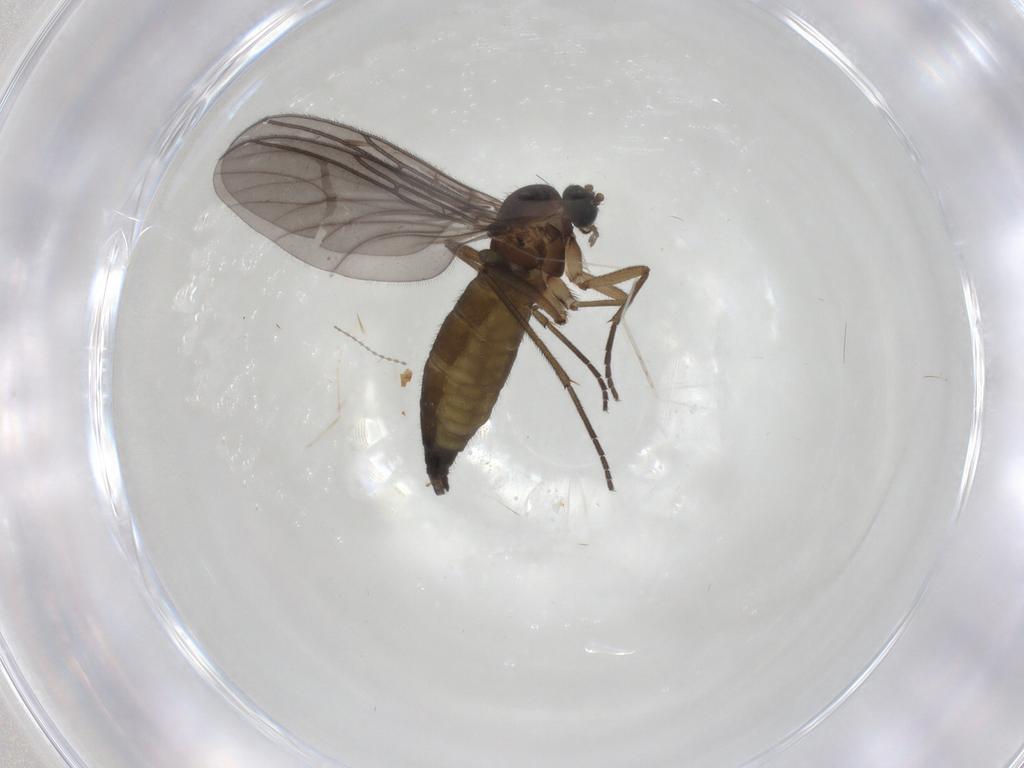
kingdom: Animalia
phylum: Arthropoda
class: Insecta
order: Diptera
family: Sciaridae
